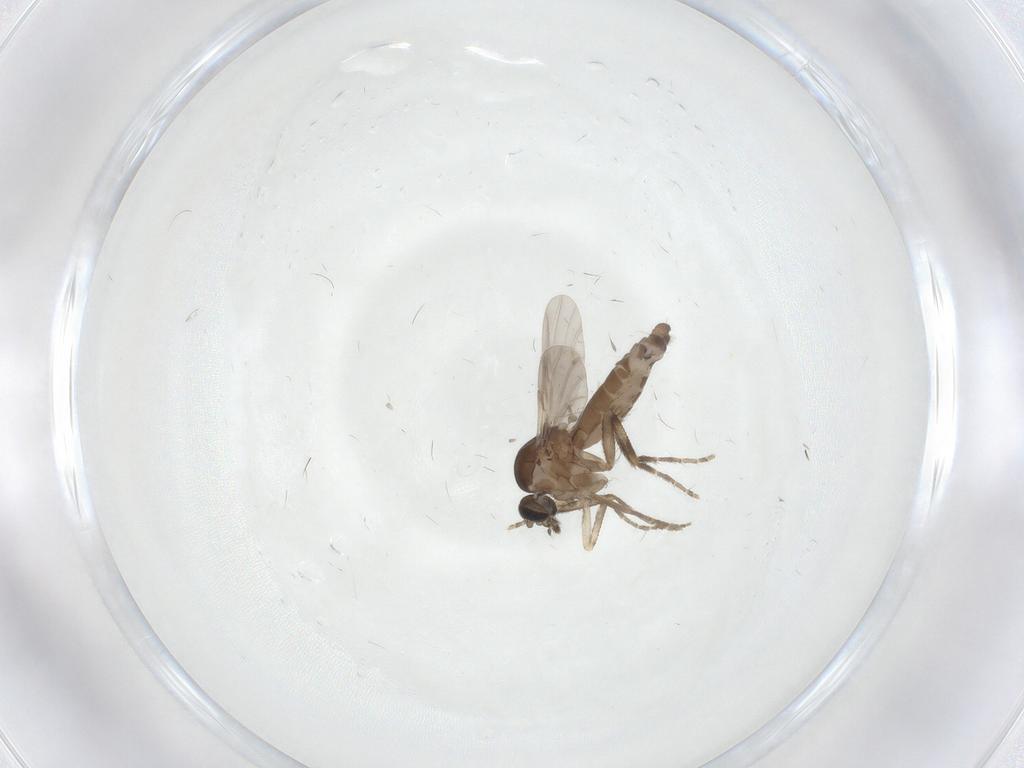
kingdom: Animalia
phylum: Arthropoda
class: Insecta
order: Diptera
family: Ceratopogonidae
